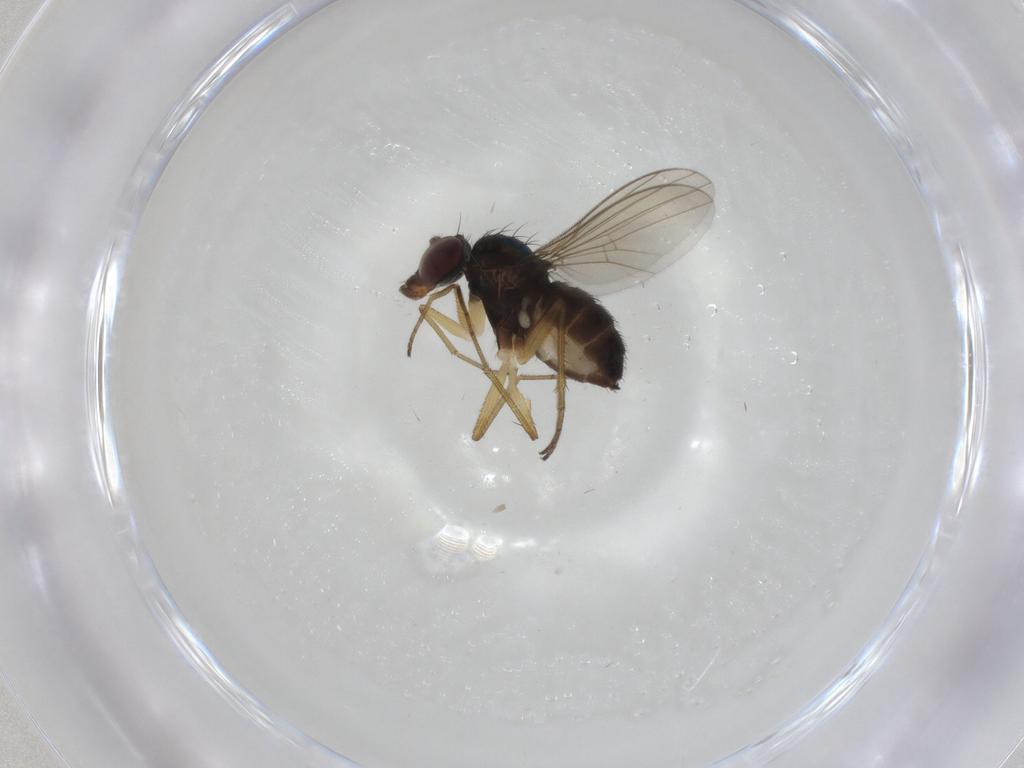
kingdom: Animalia
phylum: Arthropoda
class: Insecta
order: Diptera
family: Dolichopodidae
